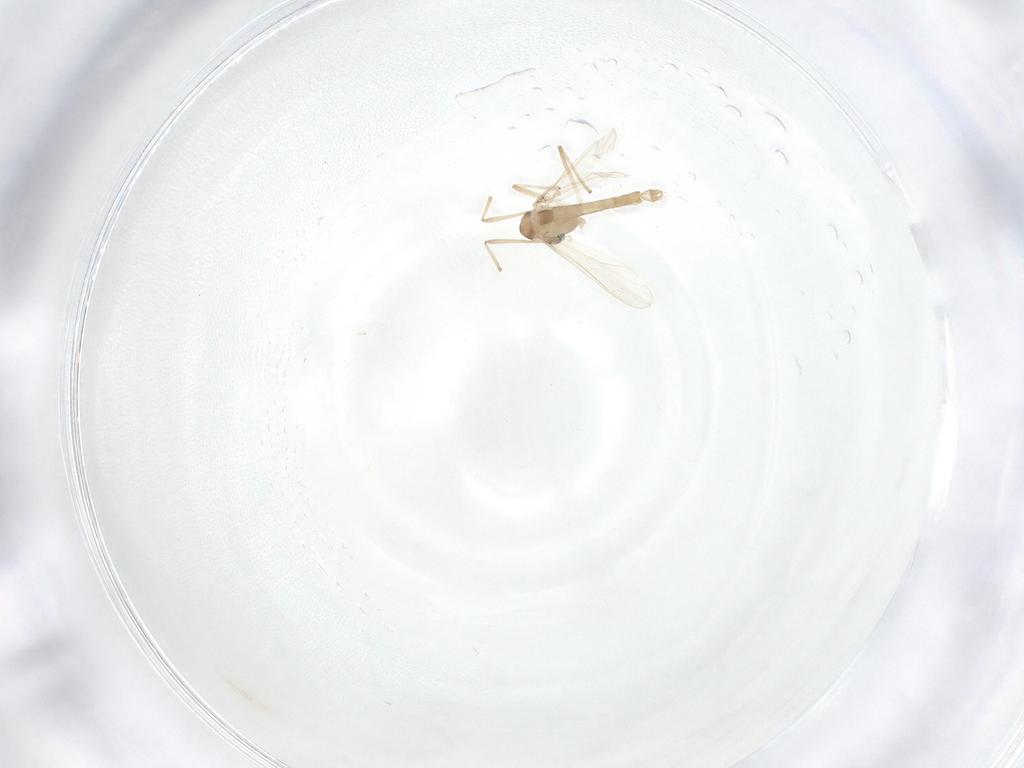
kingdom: Animalia
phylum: Arthropoda
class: Insecta
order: Diptera
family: Chironomidae
